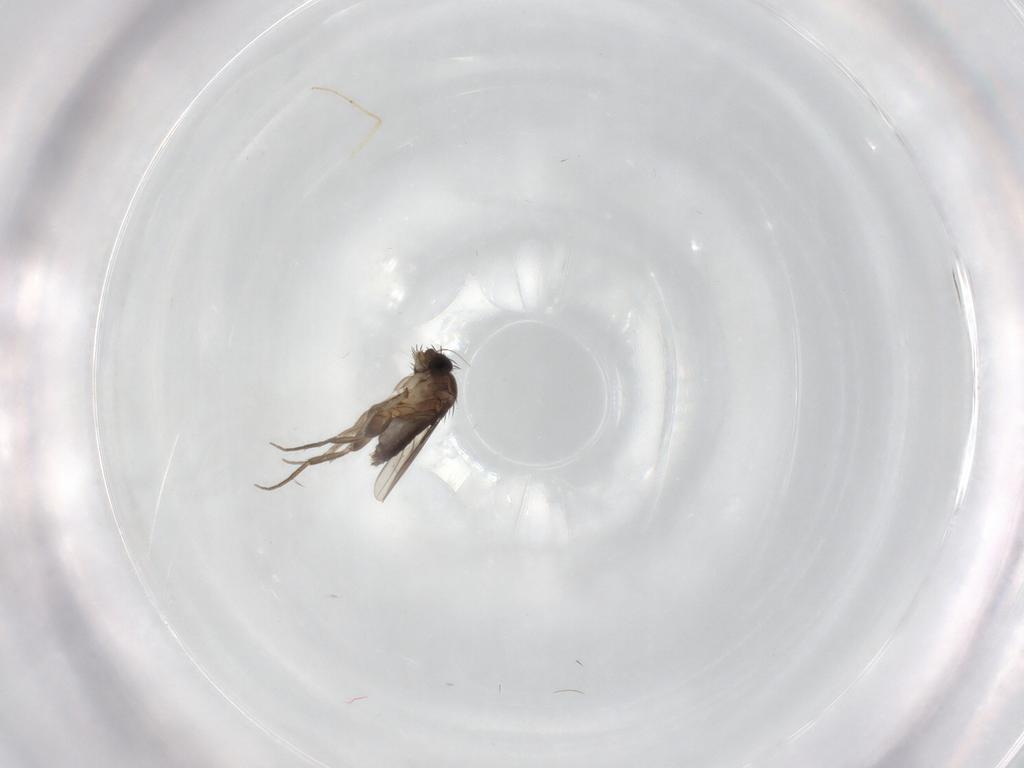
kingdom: Animalia
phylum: Arthropoda
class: Insecta
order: Diptera
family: Phoridae
